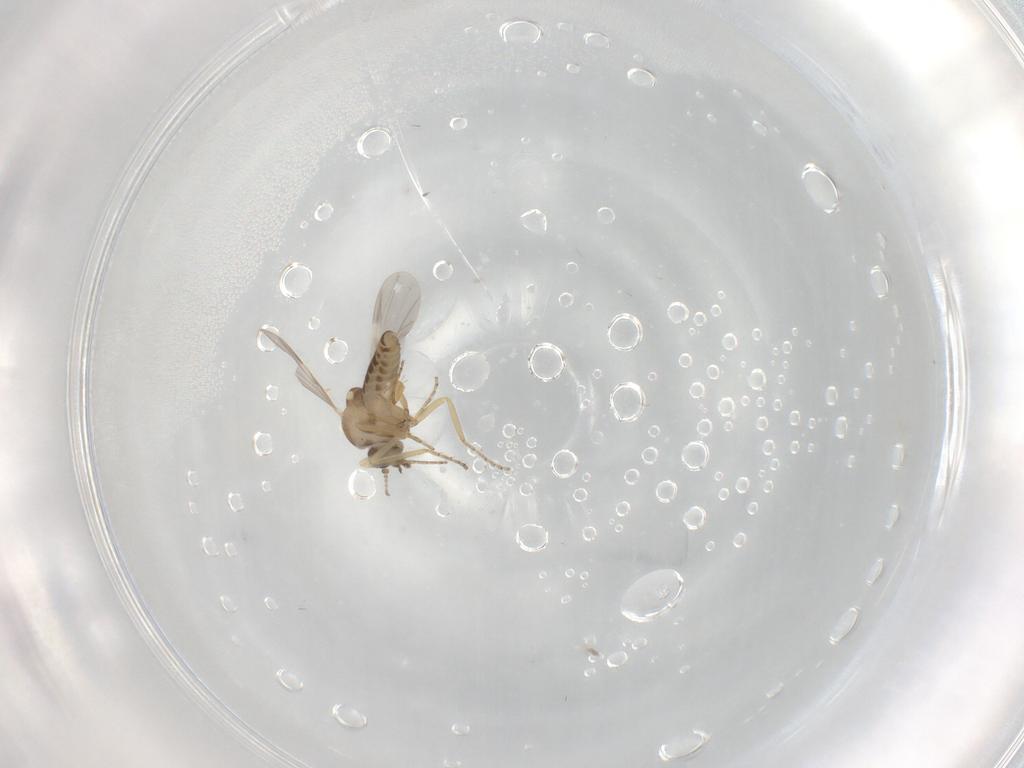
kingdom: Animalia
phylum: Arthropoda
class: Insecta
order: Diptera
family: Ceratopogonidae
